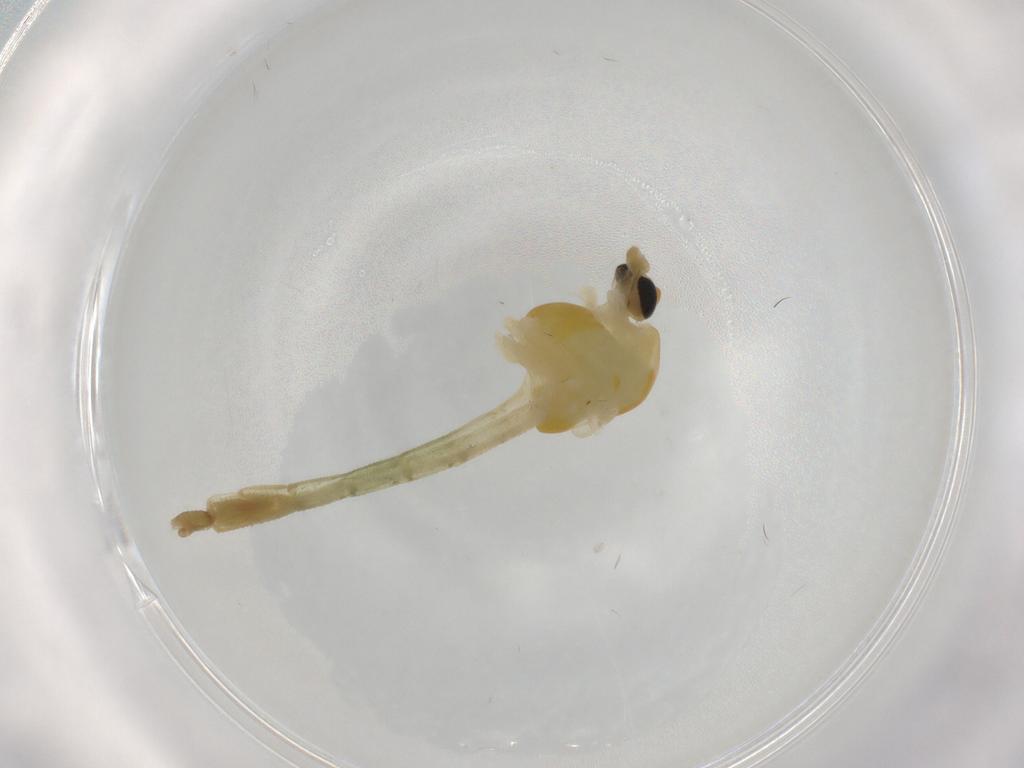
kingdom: Animalia
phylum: Arthropoda
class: Insecta
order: Diptera
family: Chironomidae
